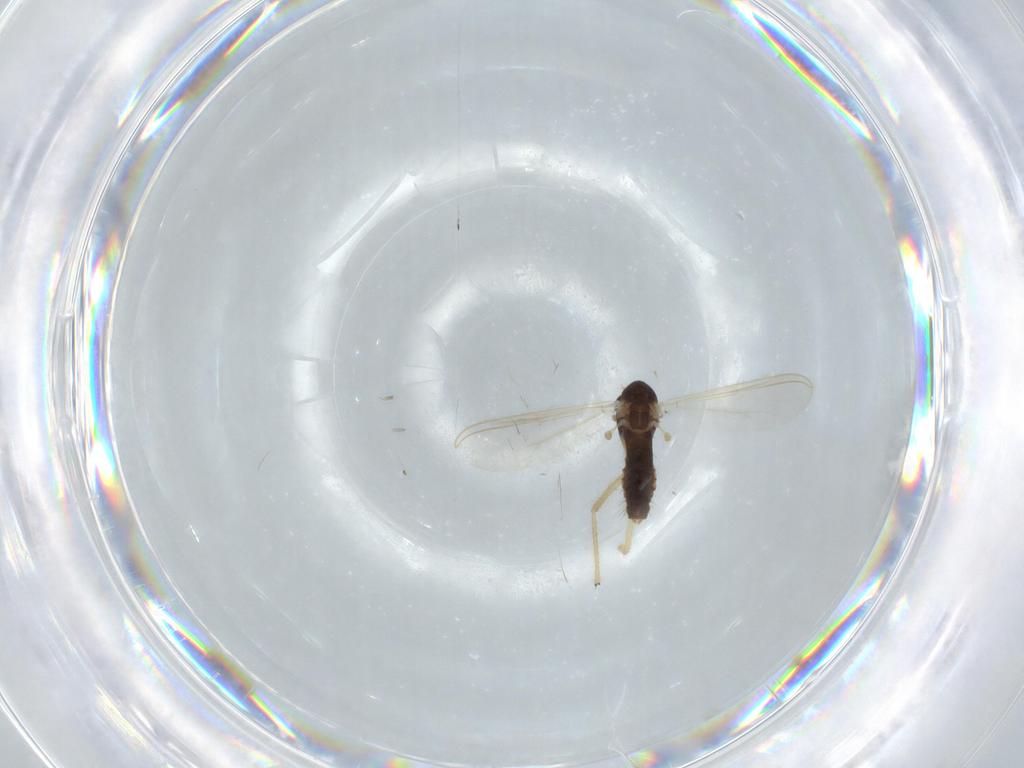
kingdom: Animalia
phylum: Arthropoda
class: Insecta
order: Diptera
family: Chironomidae
